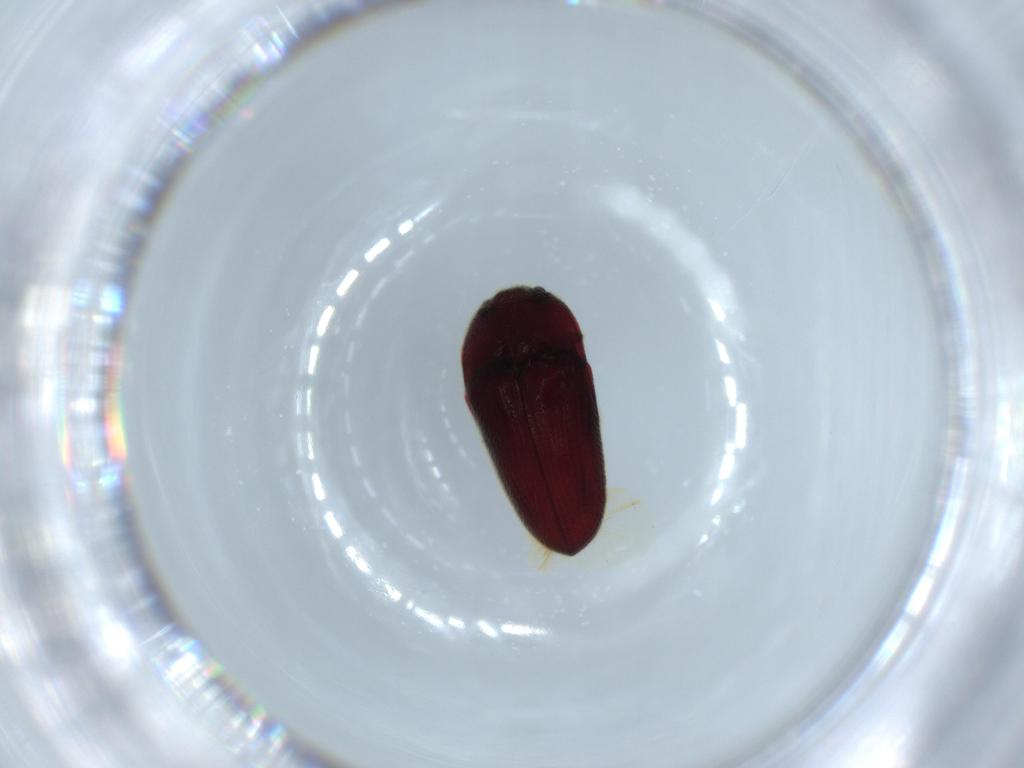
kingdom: Animalia
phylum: Arthropoda
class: Insecta
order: Coleoptera
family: Throscidae
